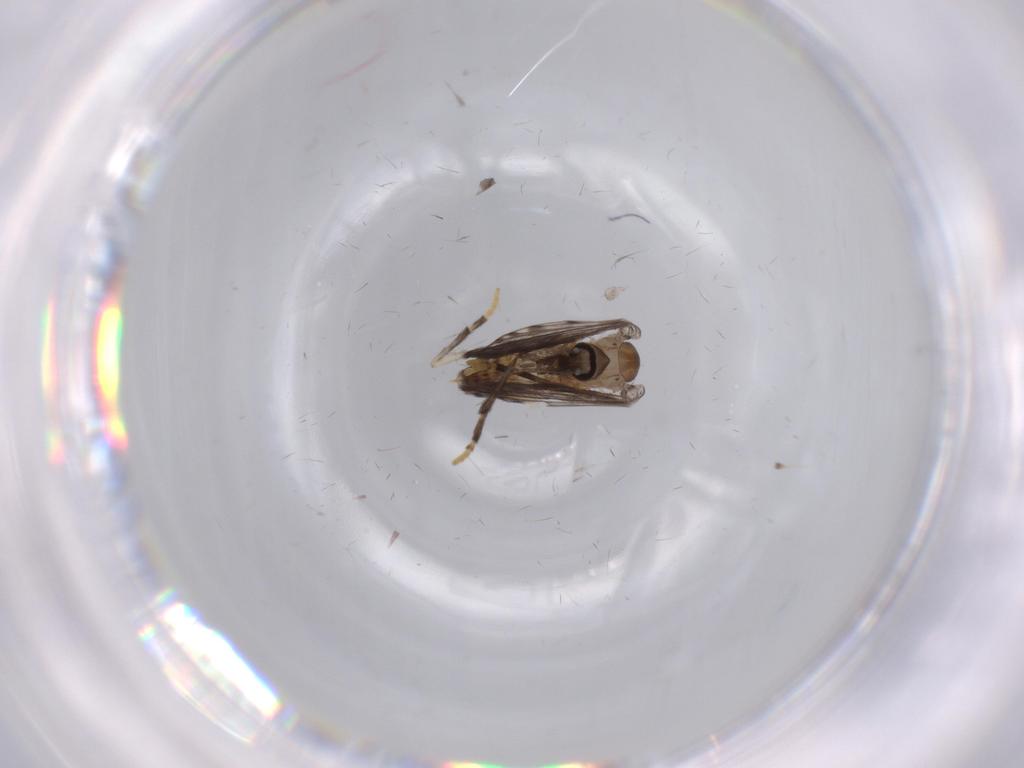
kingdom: Animalia
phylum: Arthropoda
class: Insecta
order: Diptera
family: Psychodidae
